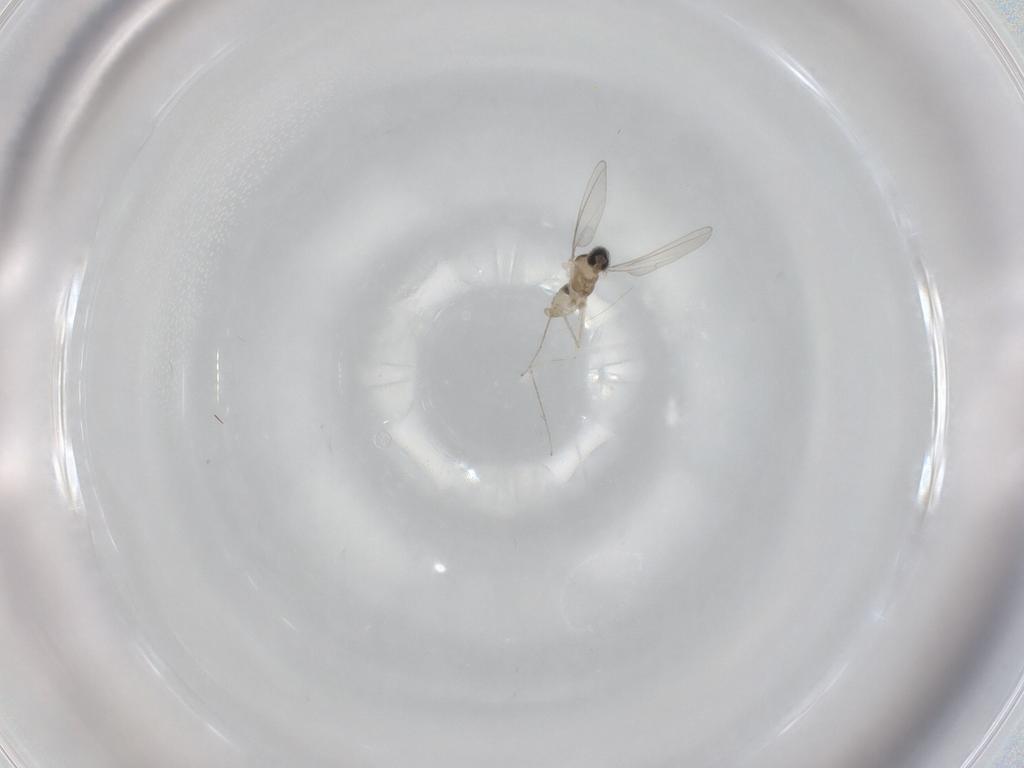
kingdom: Animalia
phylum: Arthropoda
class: Insecta
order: Diptera
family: Cecidomyiidae
